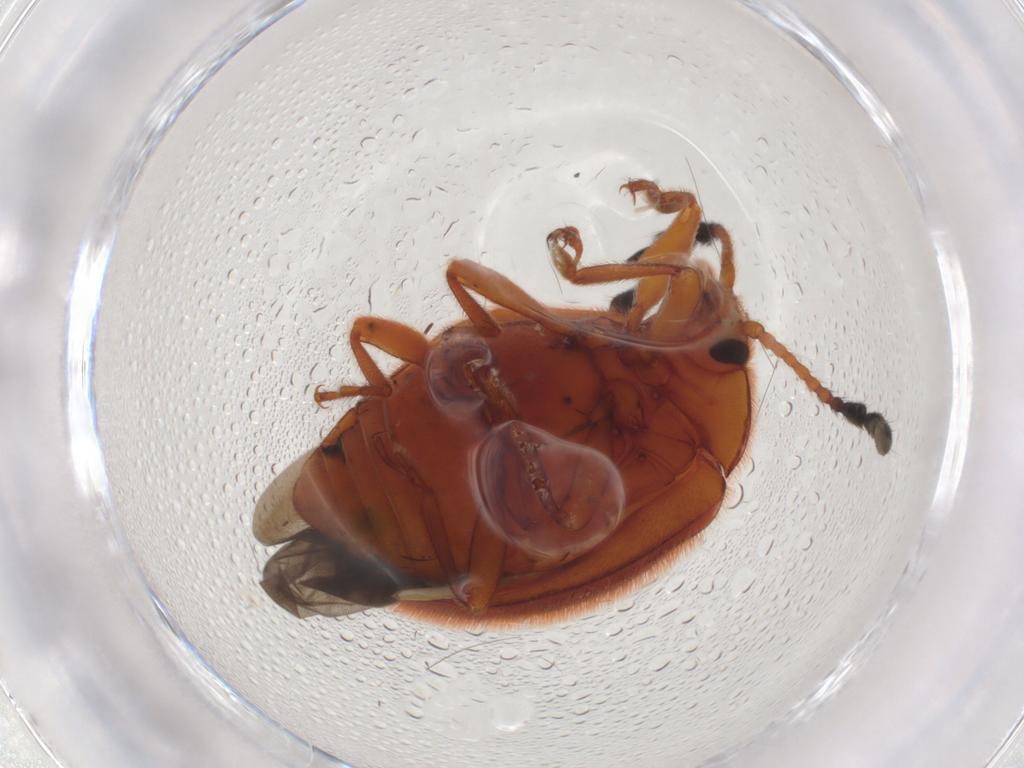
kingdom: Animalia
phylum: Arthropoda
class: Insecta
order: Coleoptera
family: Endomychidae
